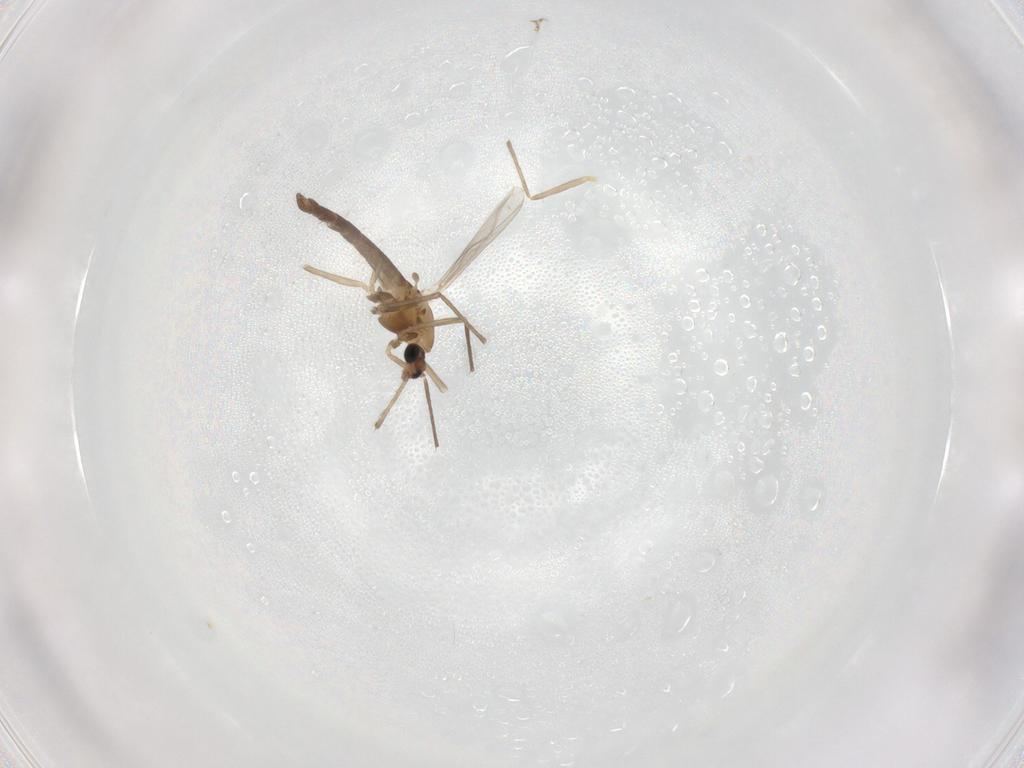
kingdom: Animalia
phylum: Arthropoda
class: Insecta
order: Diptera
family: Chironomidae
